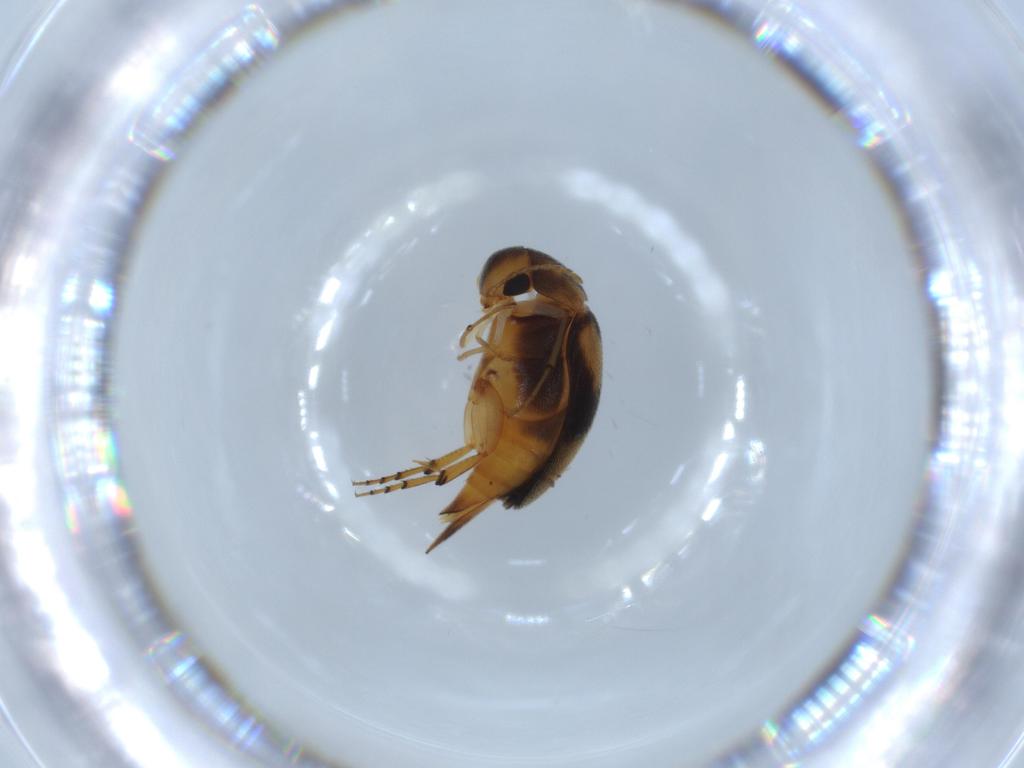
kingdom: Animalia
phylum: Arthropoda
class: Insecta
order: Coleoptera
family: Mordellidae
